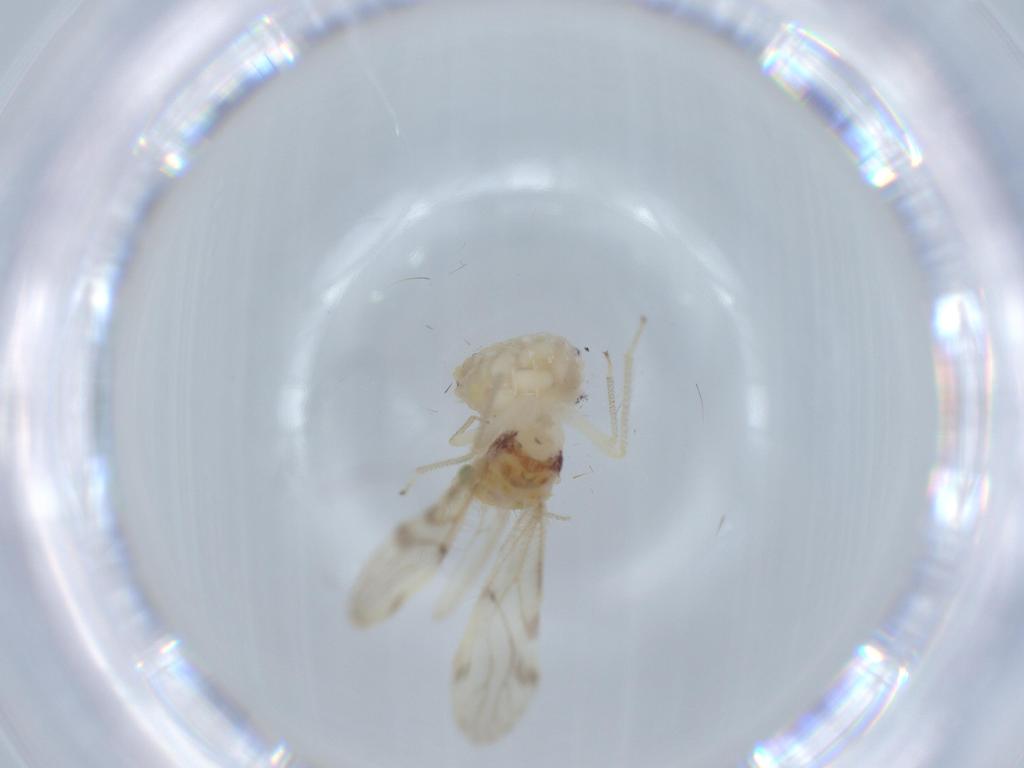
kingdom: Animalia
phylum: Arthropoda
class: Insecta
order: Psocodea
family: Pseudocaeciliidae
